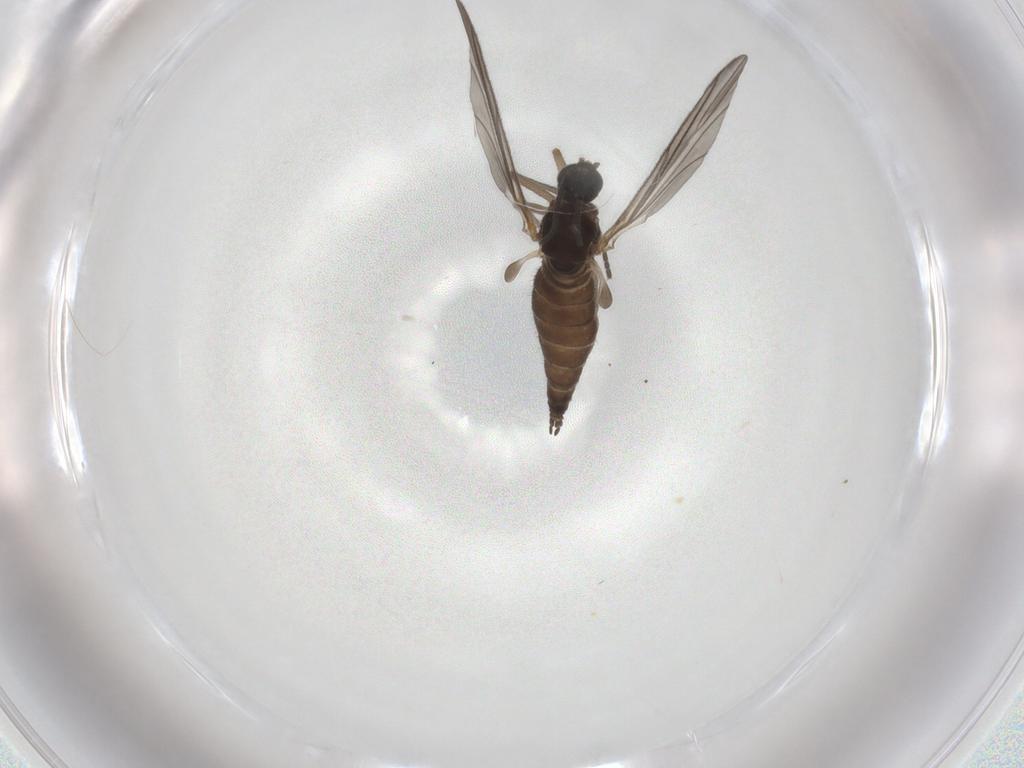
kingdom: Animalia
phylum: Arthropoda
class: Insecta
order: Diptera
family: Sciaridae
